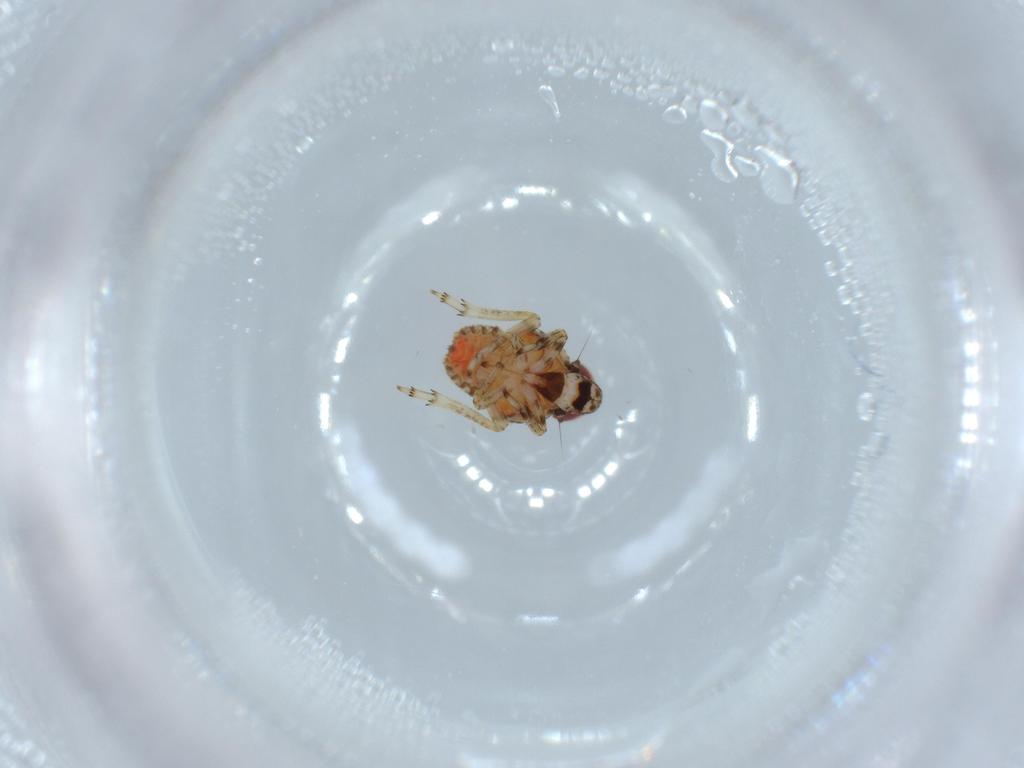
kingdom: Animalia
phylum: Arthropoda
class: Insecta
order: Hemiptera
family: Issidae
